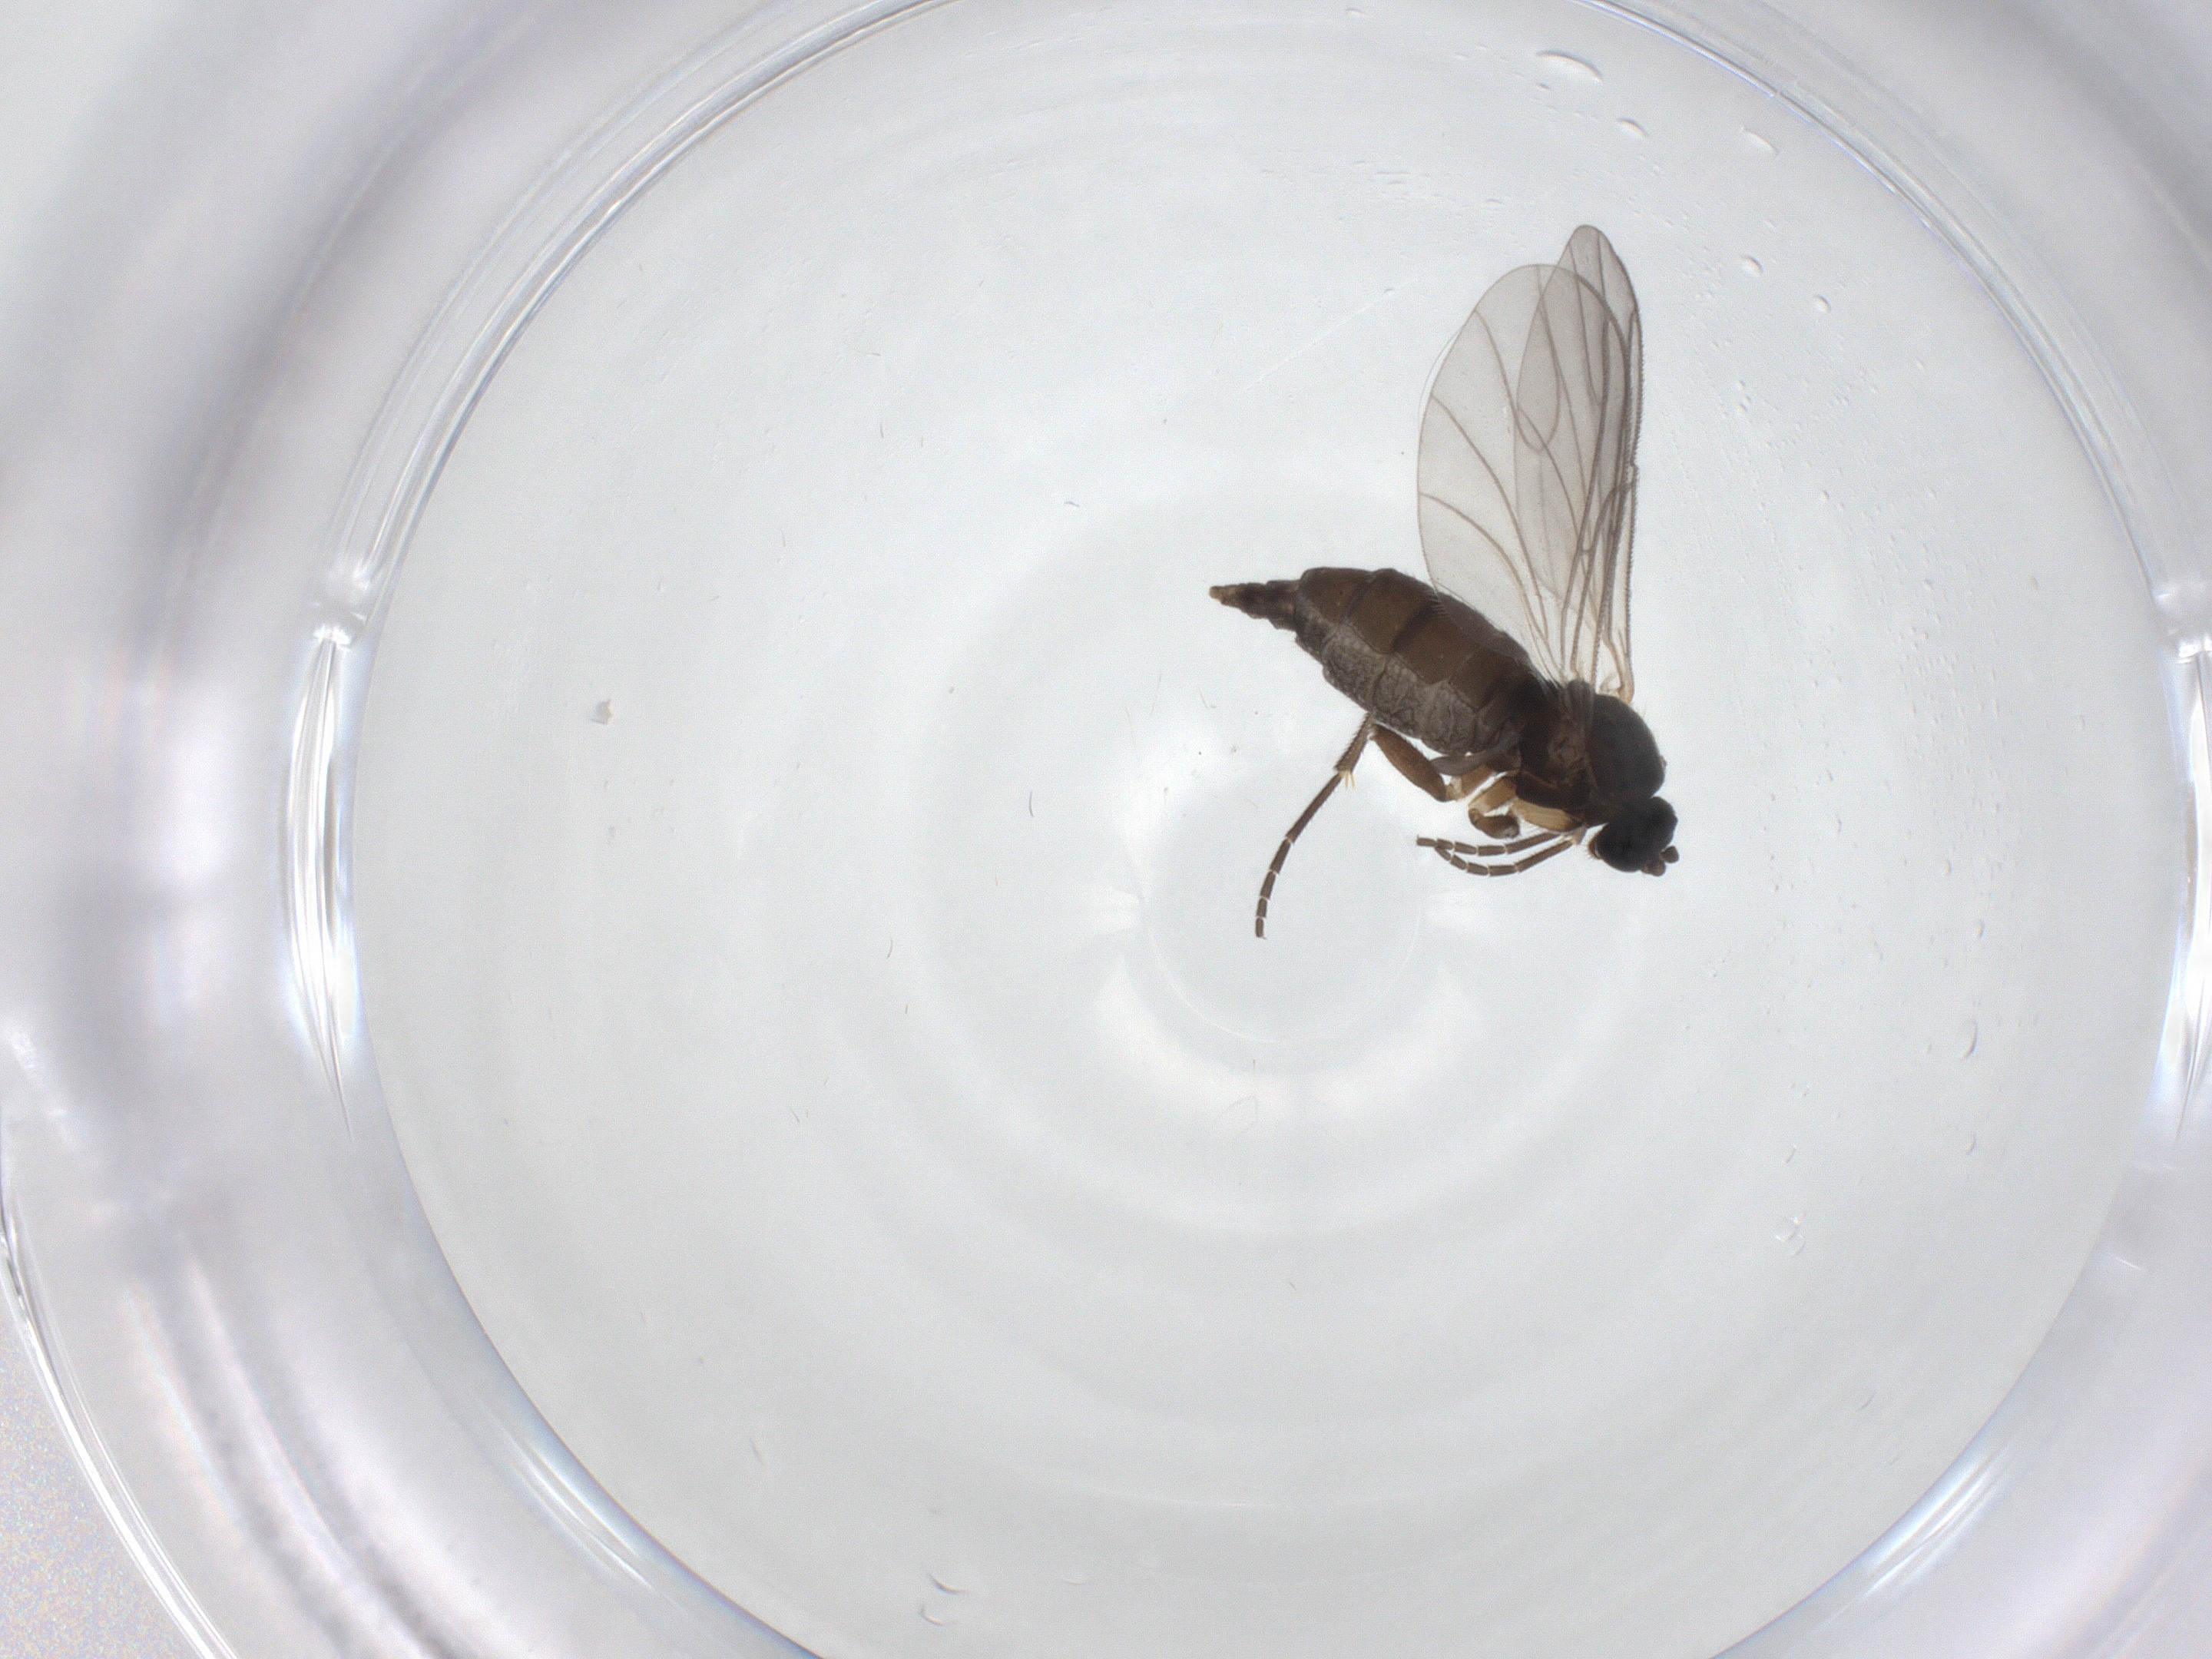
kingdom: Animalia
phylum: Arthropoda
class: Insecta
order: Diptera
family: Sciaridae
